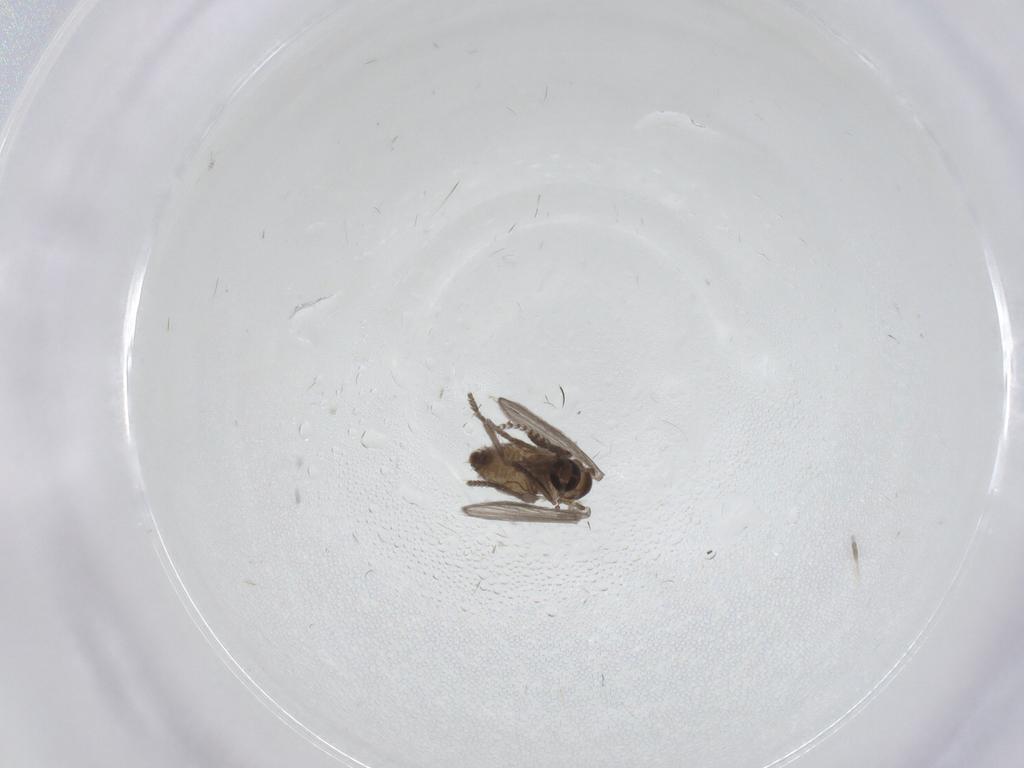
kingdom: Animalia
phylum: Arthropoda
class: Insecta
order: Diptera
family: Psychodidae
